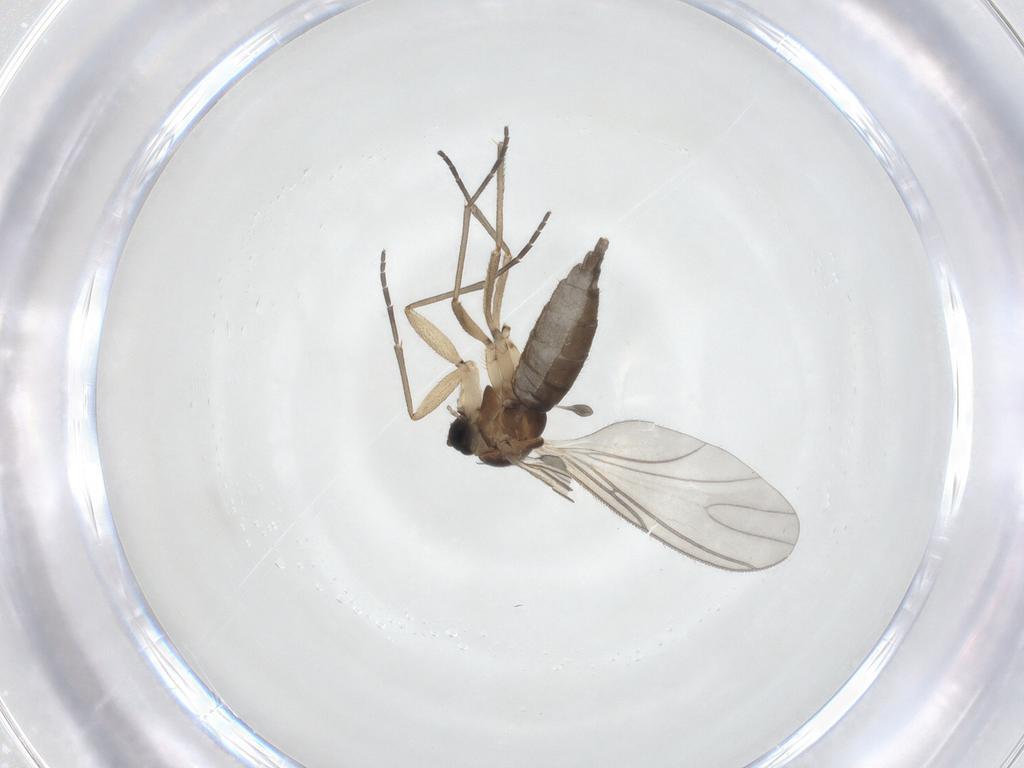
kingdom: Animalia
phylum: Arthropoda
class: Insecta
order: Diptera
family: Sciaridae
